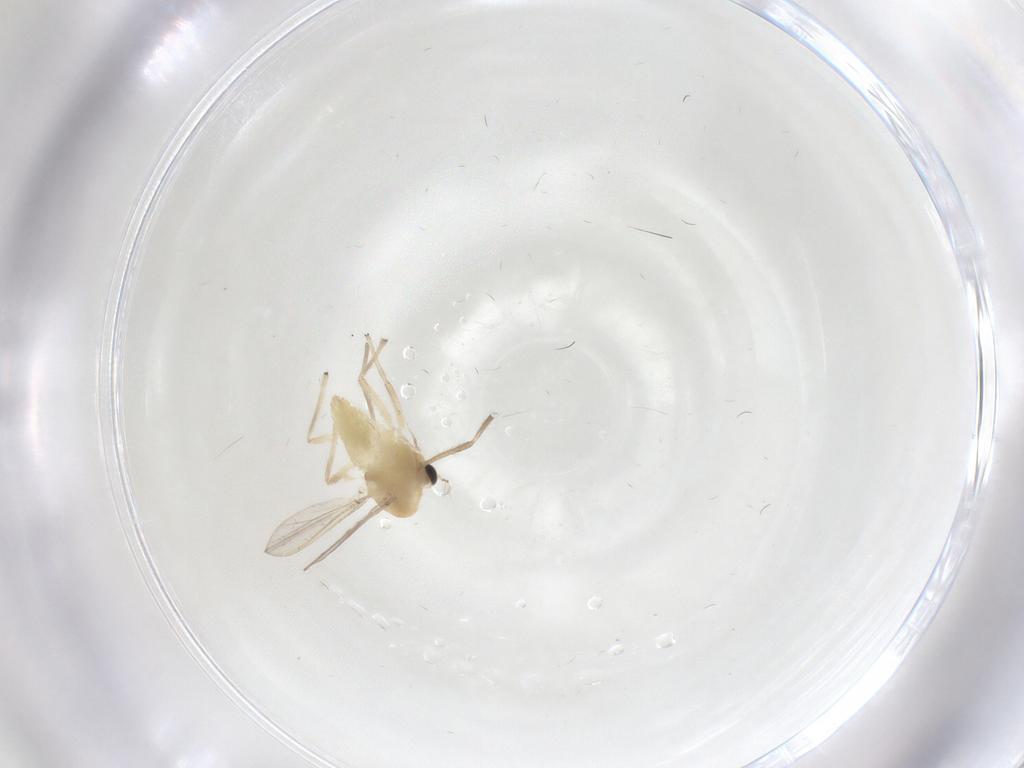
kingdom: Animalia
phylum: Arthropoda
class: Insecta
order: Diptera
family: Chironomidae
